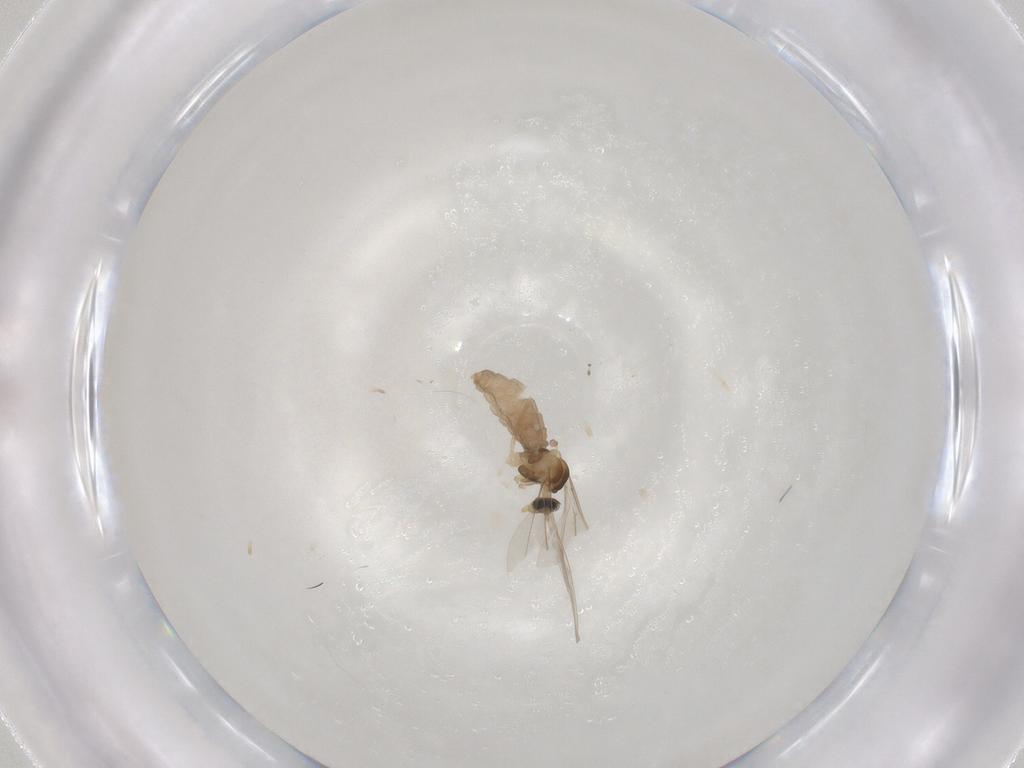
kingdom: Animalia
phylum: Arthropoda
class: Insecta
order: Diptera
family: Cecidomyiidae
